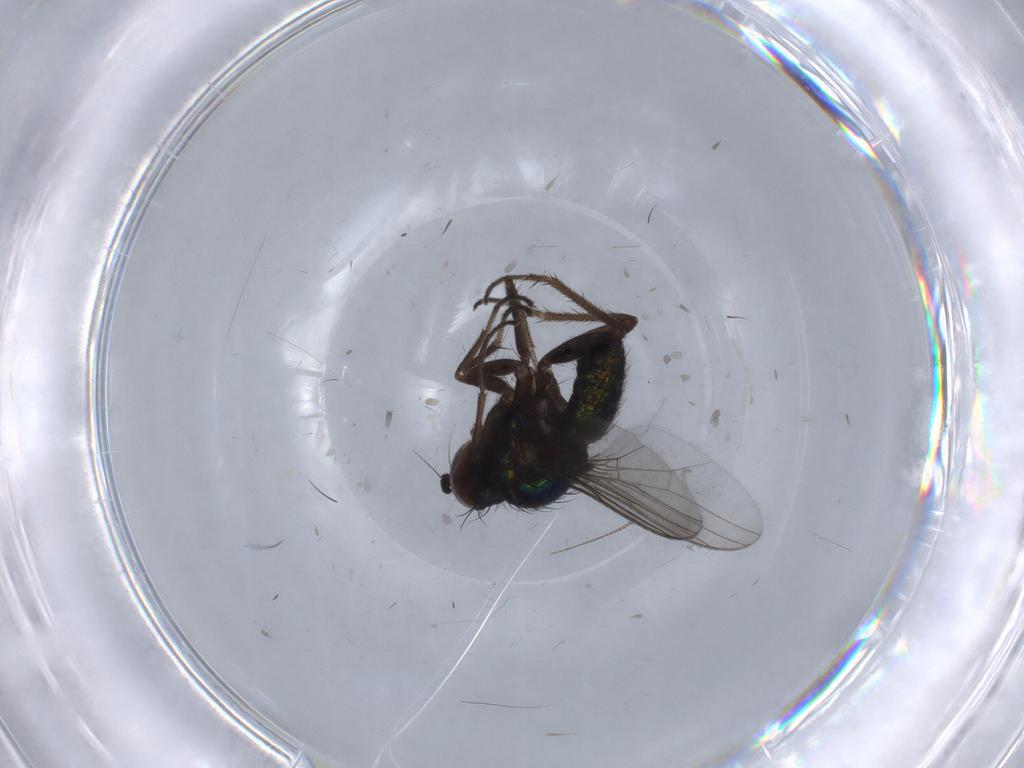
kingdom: Animalia
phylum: Arthropoda
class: Insecta
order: Diptera
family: Dolichopodidae
